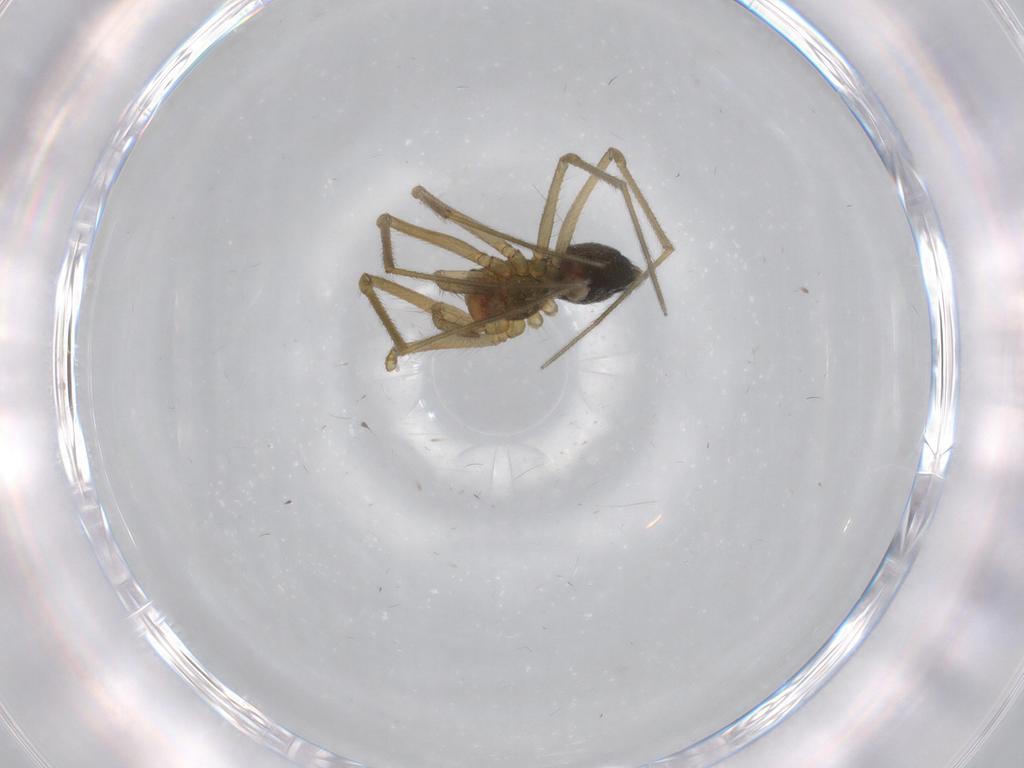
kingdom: Animalia
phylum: Arthropoda
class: Arachnida
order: Araneae
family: Linyphiidae
